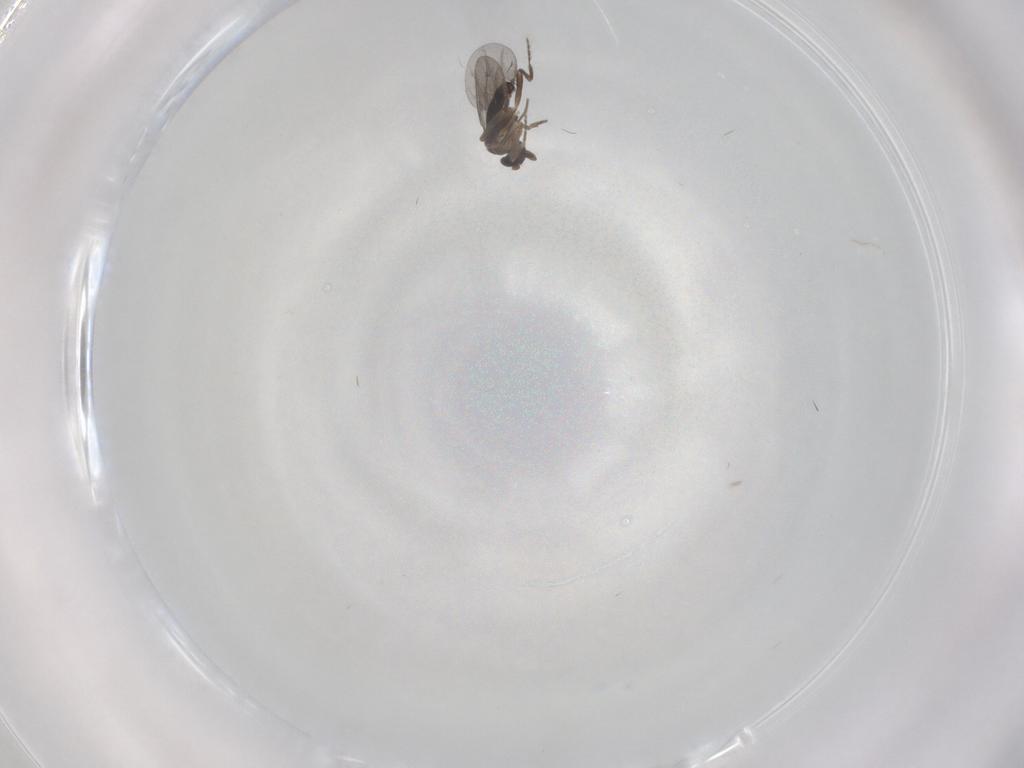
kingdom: Animalia
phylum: Arthropoda
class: Insecta
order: Diptera
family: Chironomidae
